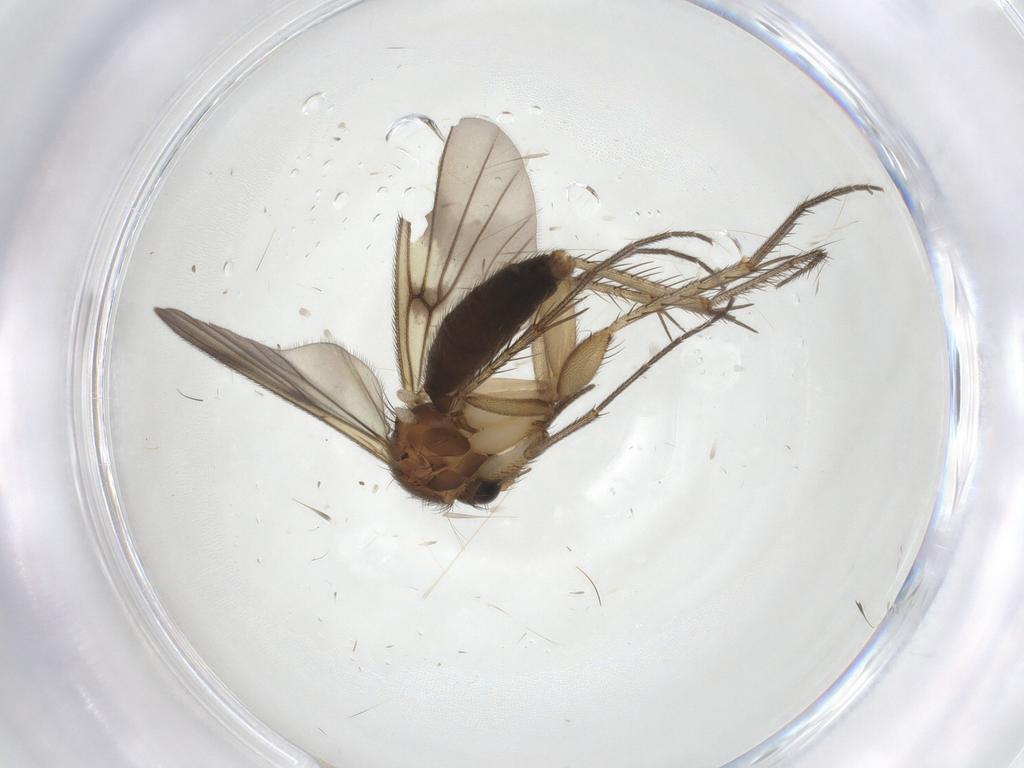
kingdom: Animalia
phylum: Arthropoda
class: Insecta
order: Diptera
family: Mycetophilidae
